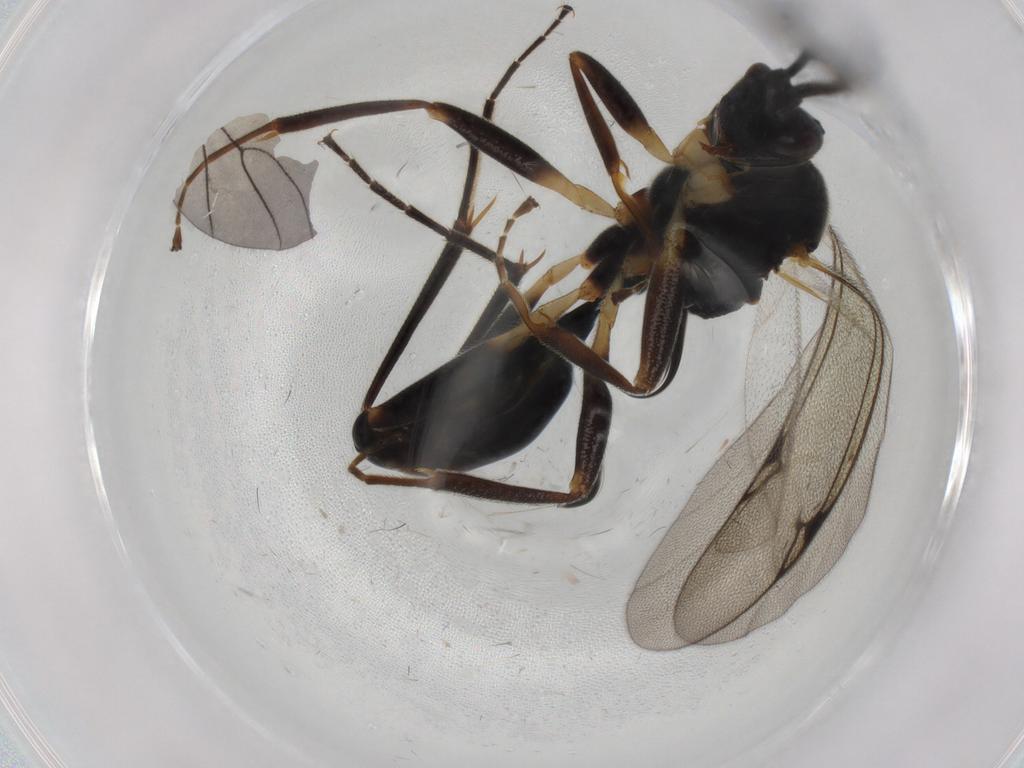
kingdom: Animalia
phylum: Arthropoda
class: Insecta
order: Hymenoptera
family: Proctotrupidae
